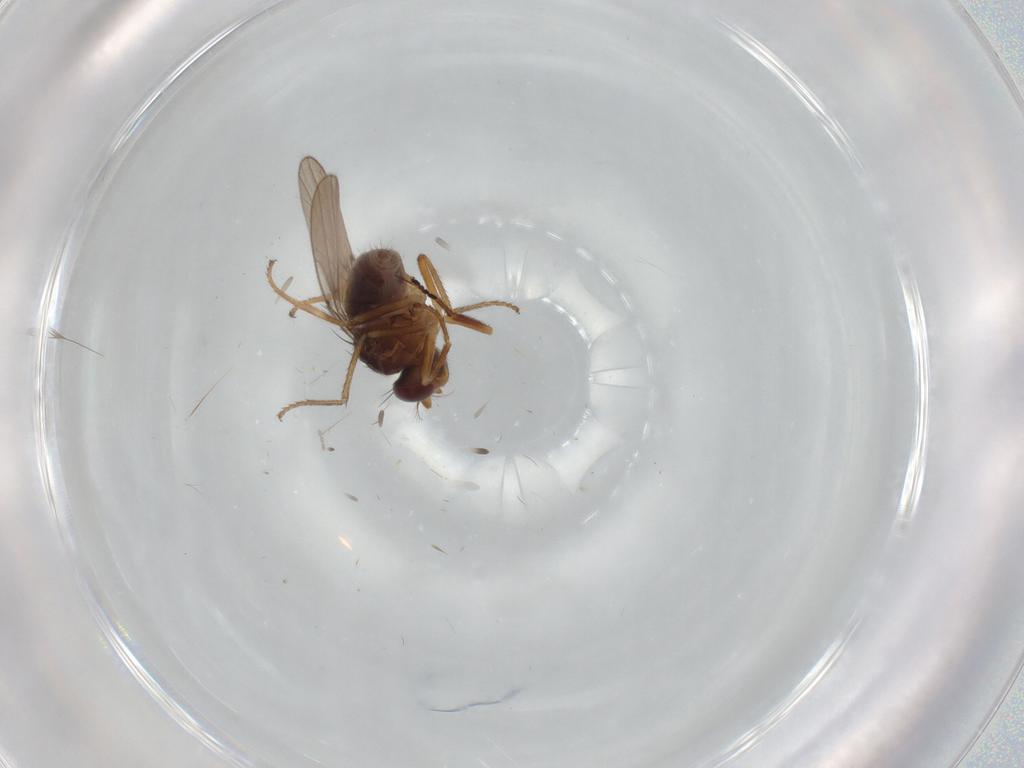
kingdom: Animalia
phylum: Arthropoda
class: Insecta
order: Diptera
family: Ephydridae
